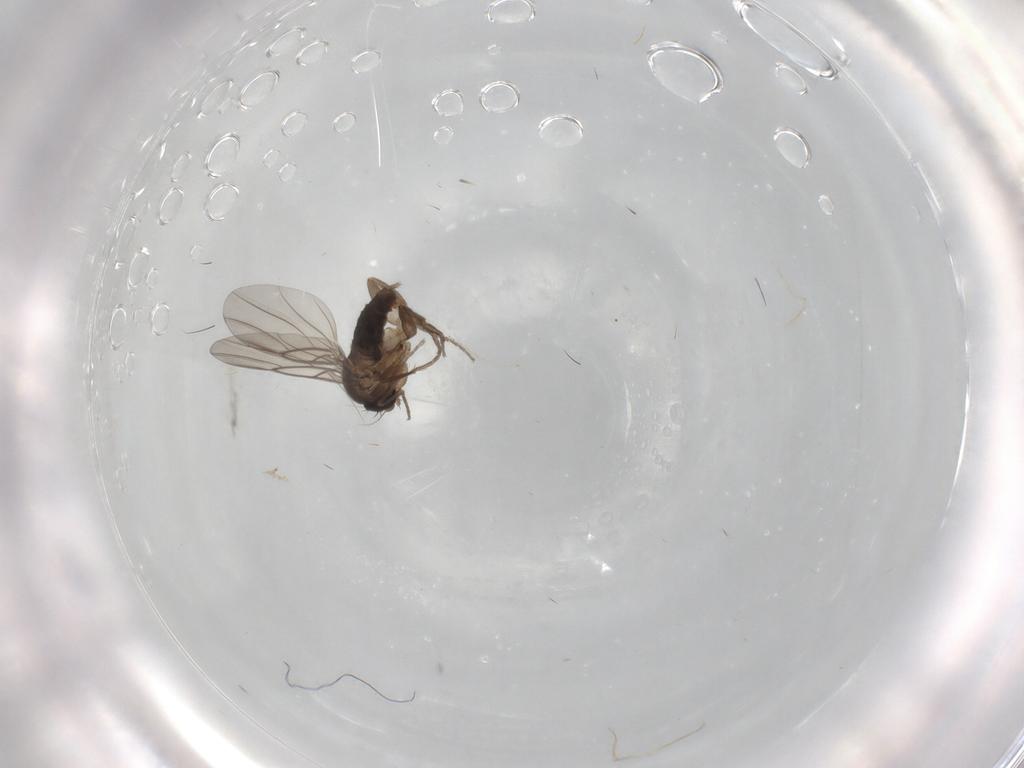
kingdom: Animalia
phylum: Arthropoda
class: Insecta
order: Diptera
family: Phoridae
